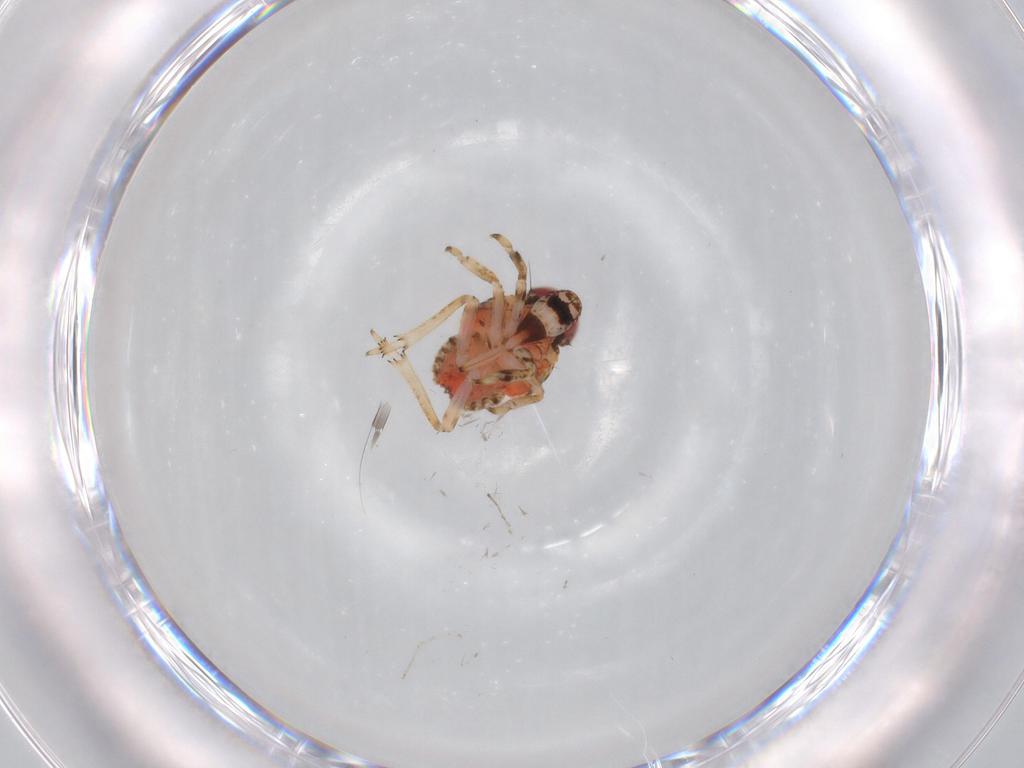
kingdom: Animalia
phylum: Arthropoda
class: Insecta
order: Hemiptera
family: Issidae
